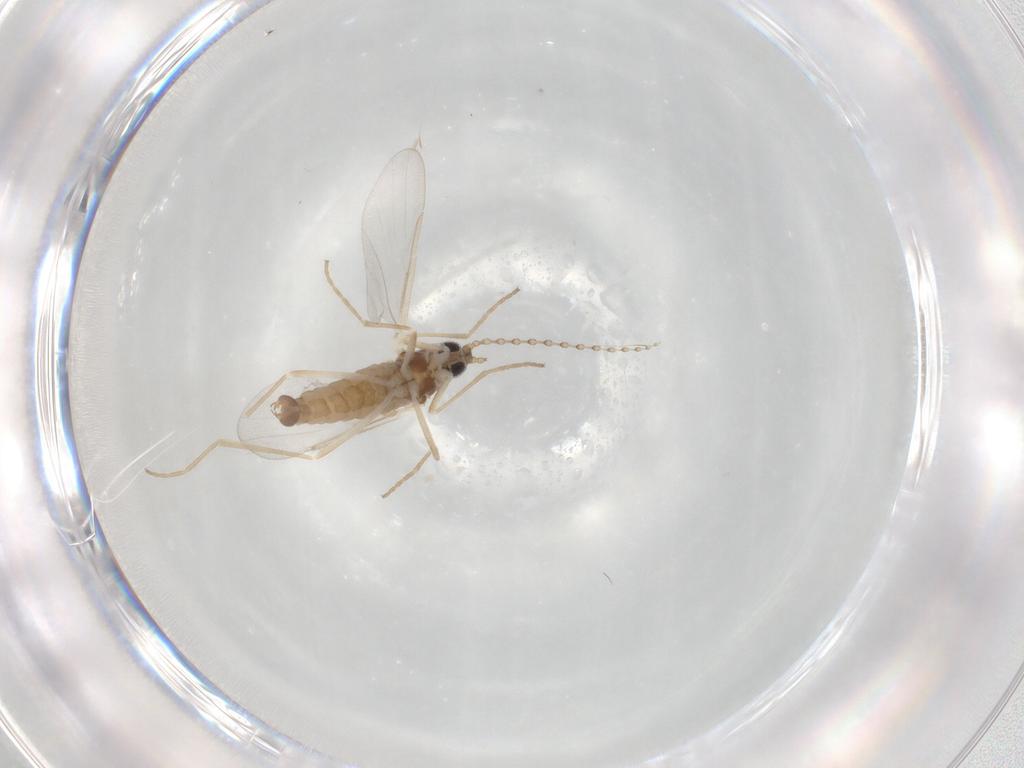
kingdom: Animalia
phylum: Arthropoda
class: Insecta
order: Diptera
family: Cecidomyiidae
